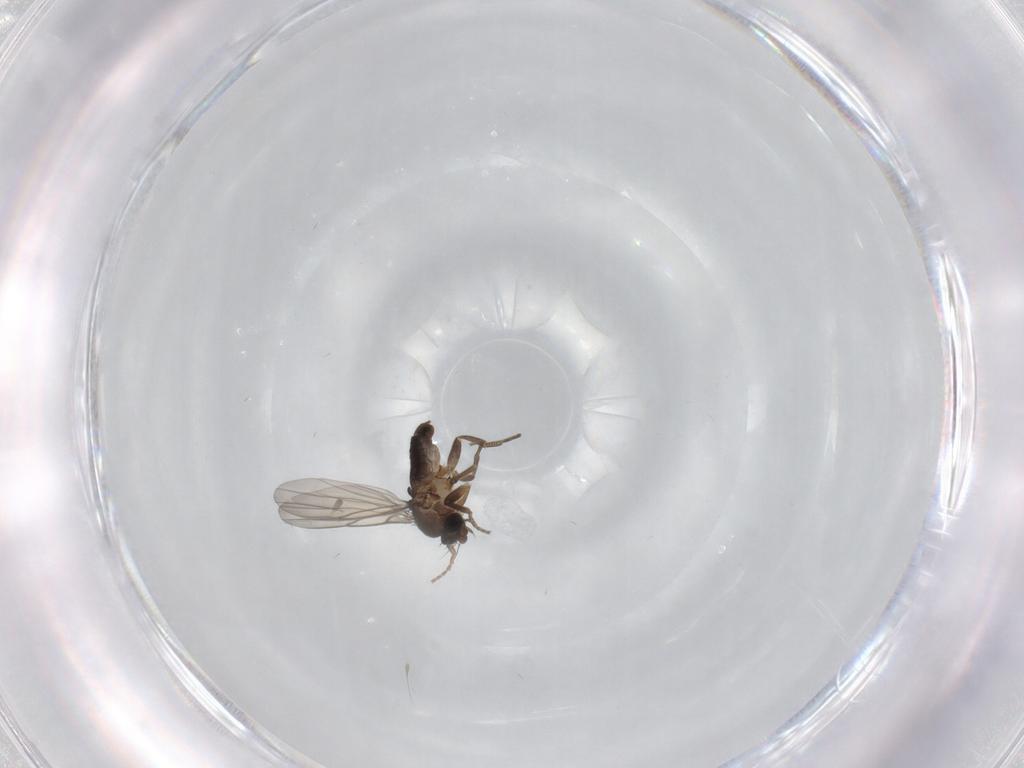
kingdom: Animalia
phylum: Arthropoda
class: Insecta
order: Diptera
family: Phoridae
